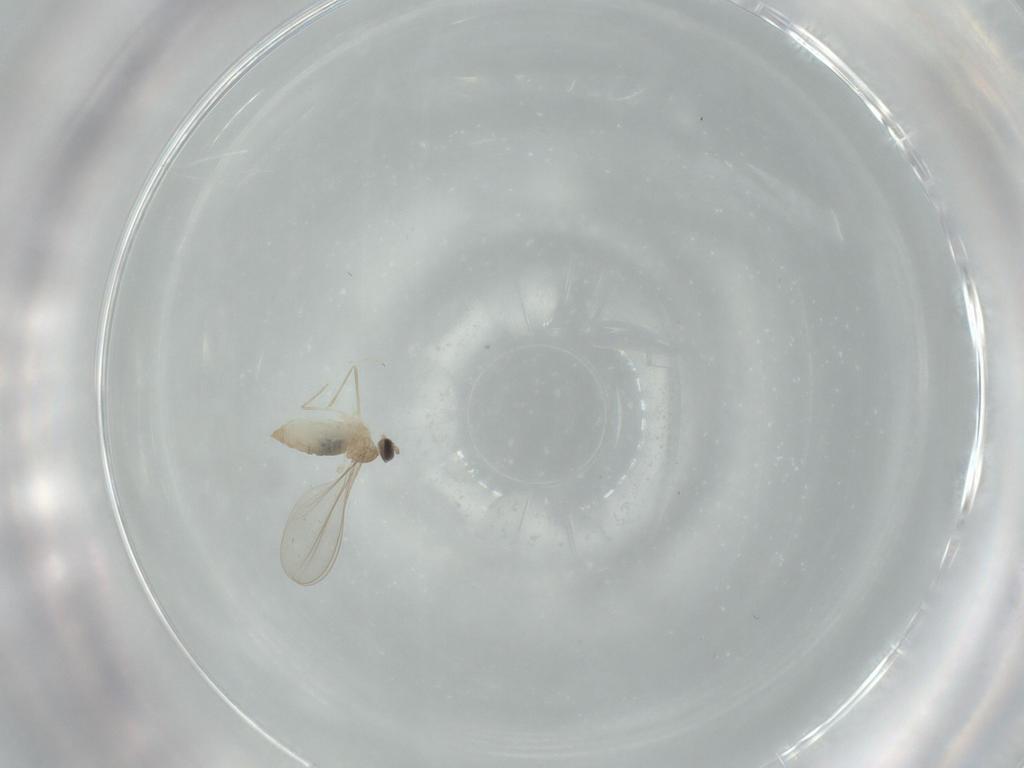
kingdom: Animalia
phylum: Arthropoda
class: Insecta
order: Diptera
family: Cecidomyiidae
